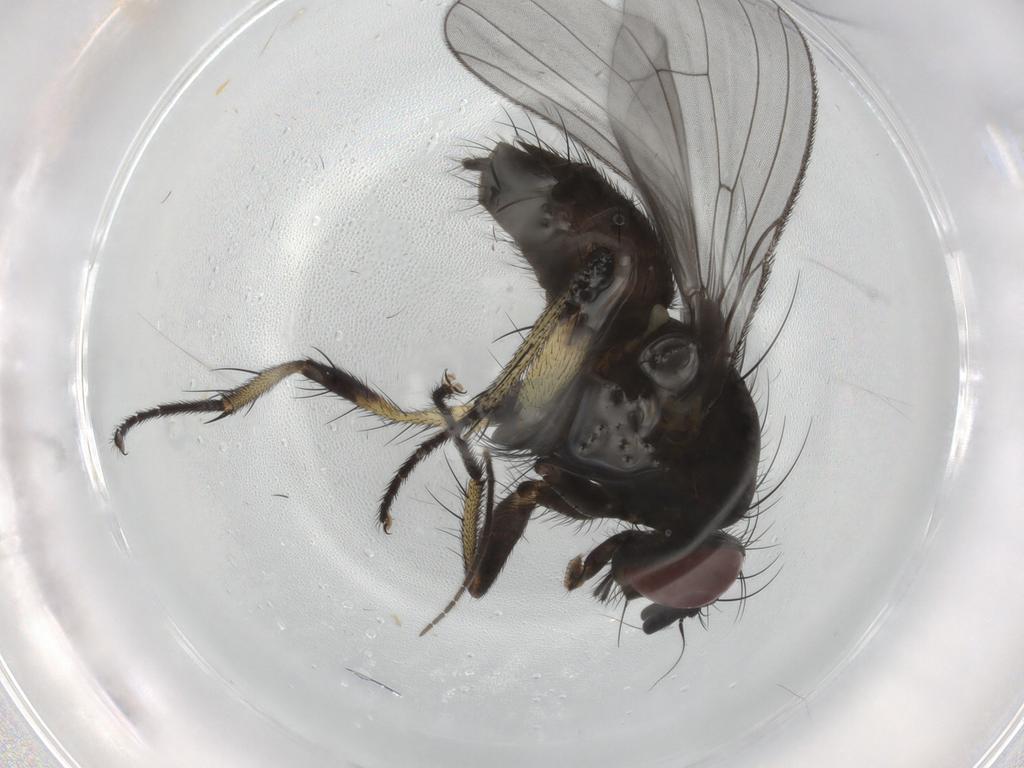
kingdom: Animalia
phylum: Arthropoda
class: Insecta
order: Diptera
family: Muscidae
